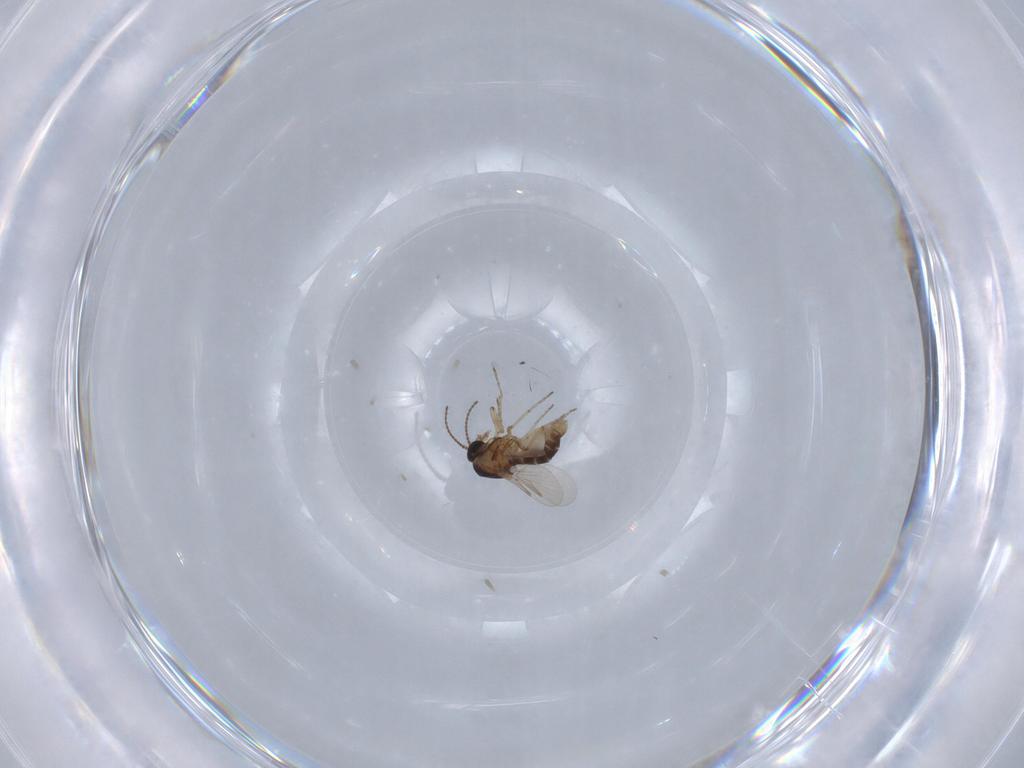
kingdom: Animalia
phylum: Arthropoda
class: Insecta
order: Diptera
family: Ceratopogonidae
